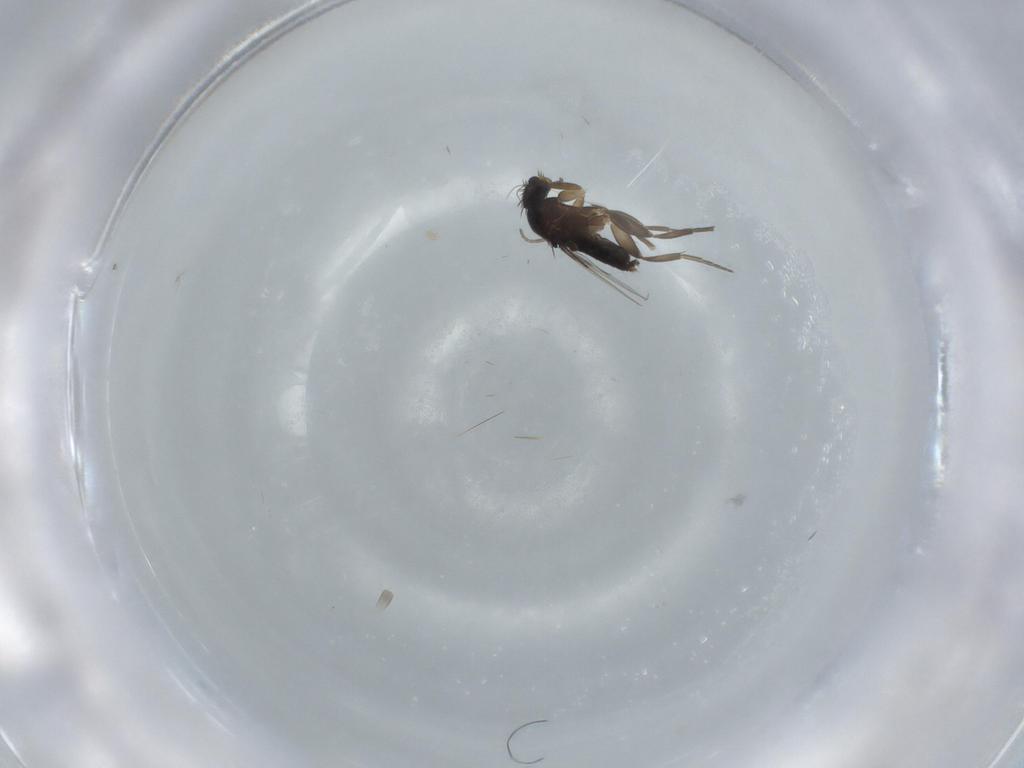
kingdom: Animalia
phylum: Arthropoda
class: Insecta
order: Diptera
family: Phoridae
